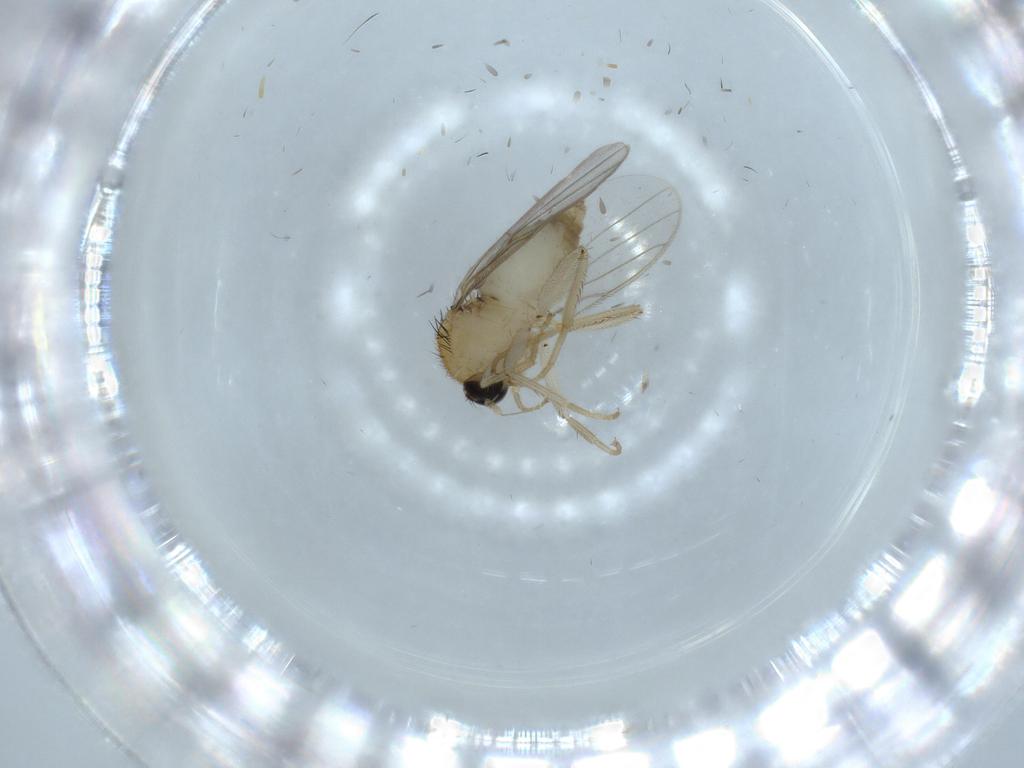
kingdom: Animalia
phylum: Arthropoda
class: Insecta
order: Diptera
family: Hybotidae
